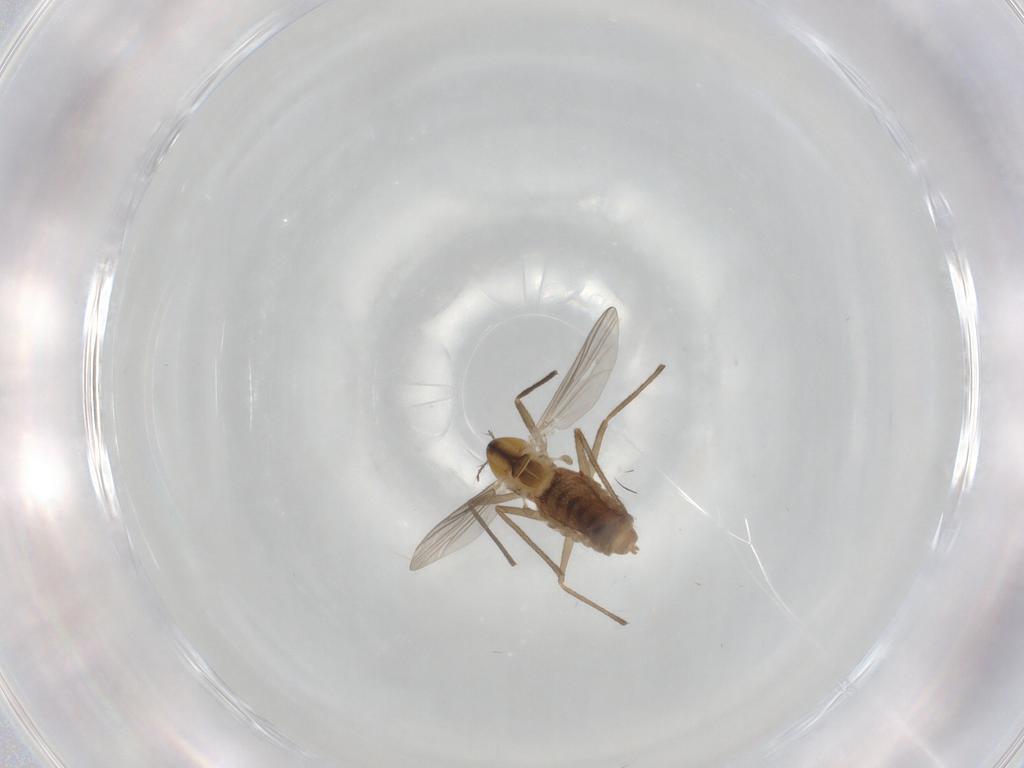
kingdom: Animalia
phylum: Arthropoda
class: Insecta
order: Diptera
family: Chironomidae
